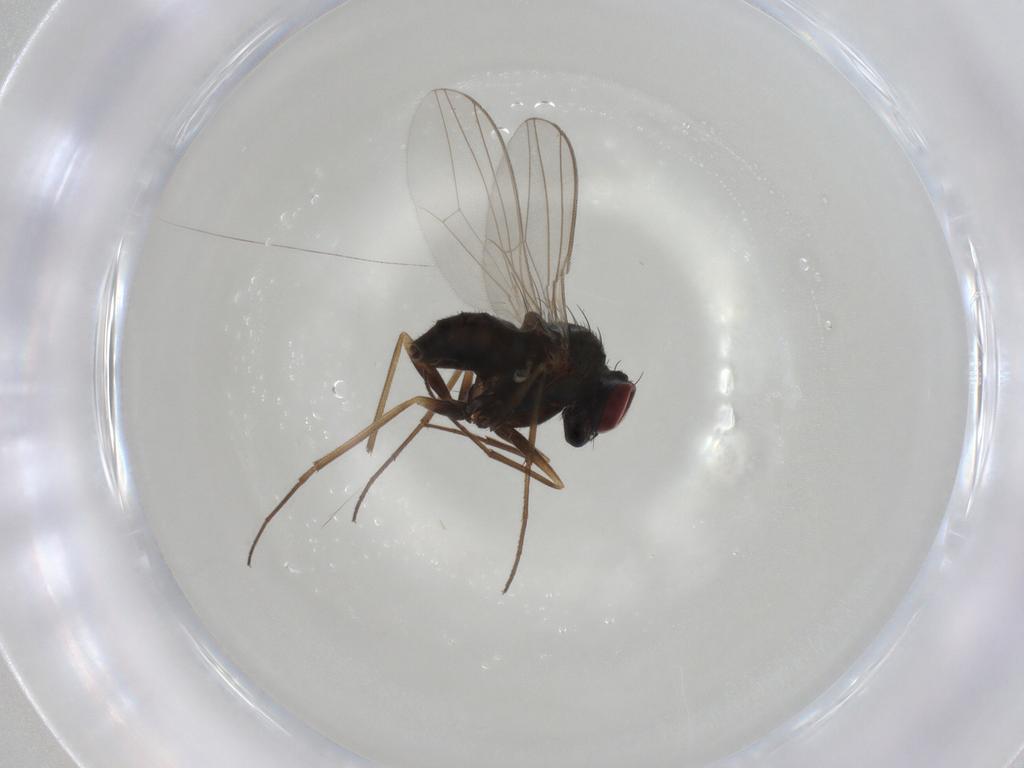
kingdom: Animalia
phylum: Arthropoda
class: Insecta
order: Diptera
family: Dolichopodidae
